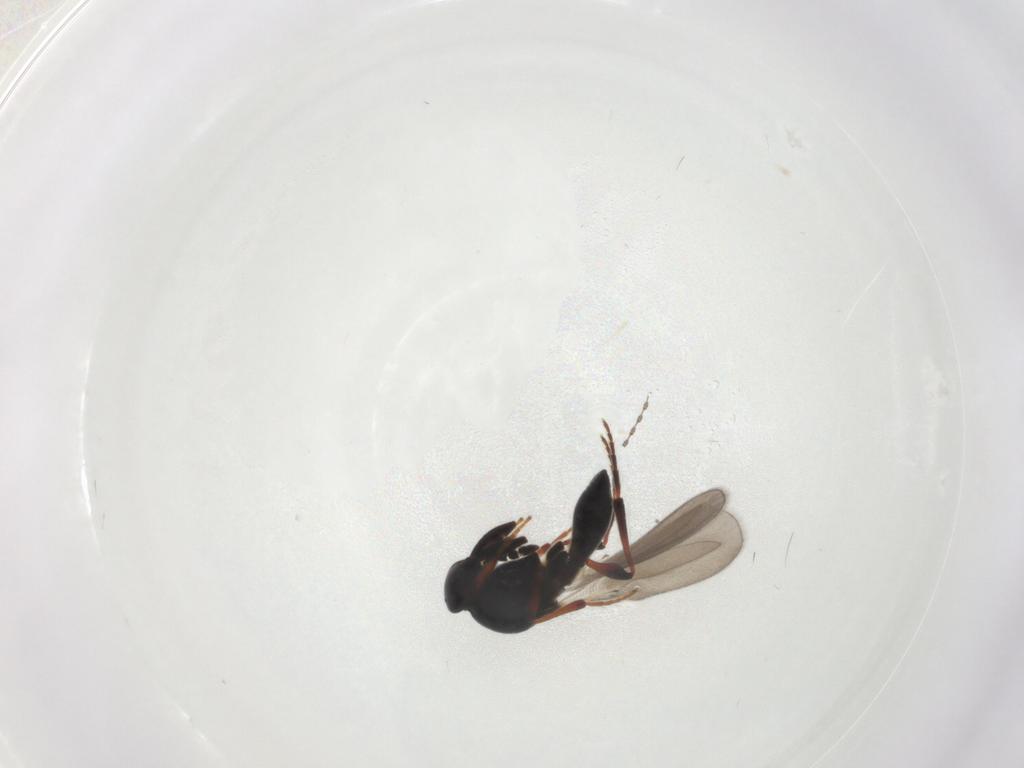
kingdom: Animalia
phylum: Arthropoda
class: Insecta
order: Hymenoptera
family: Platygastridae
